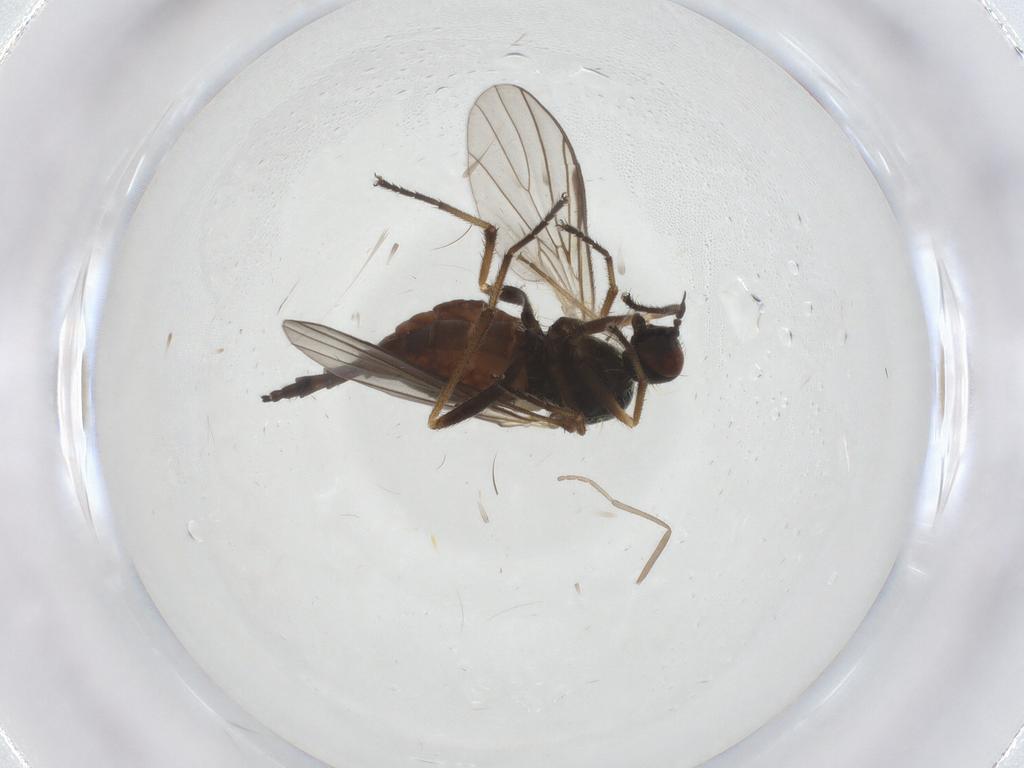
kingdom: Animalia
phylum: Arthropoda
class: Insecta
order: Diptera
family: Empididae
